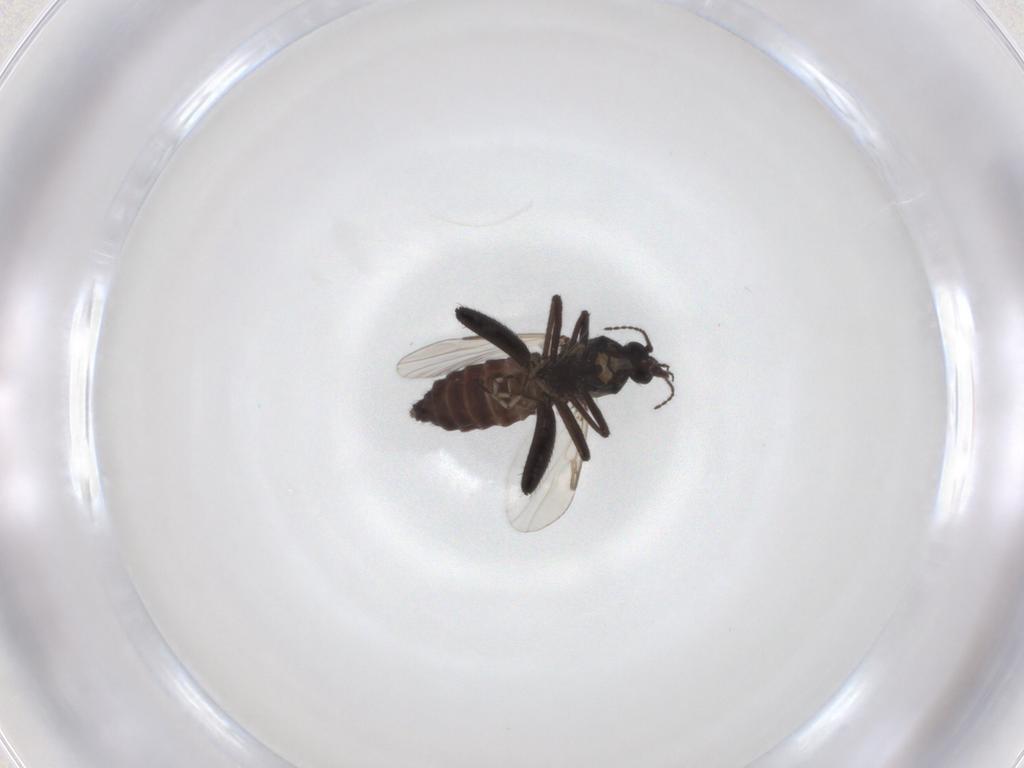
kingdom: Animalia
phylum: Arthropoda
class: Insecta
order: Diptera
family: Ceratopogonidae
